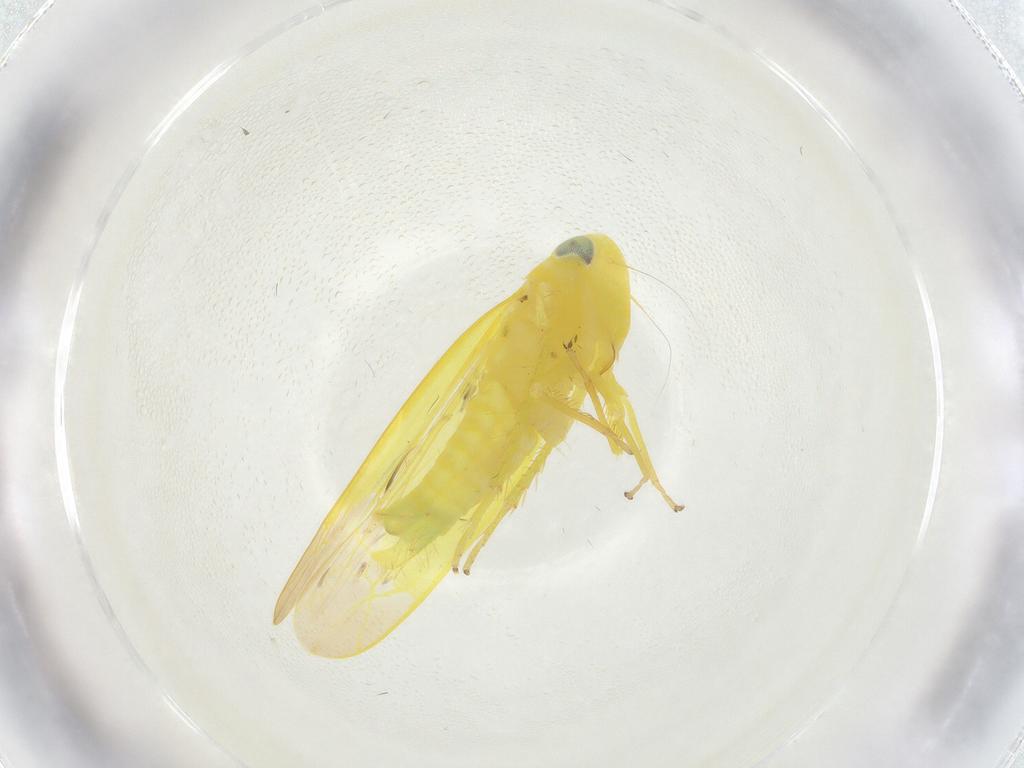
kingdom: Animalia
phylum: Arthropoda
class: Insecta
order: Hemiptera
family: Cicadellidae
